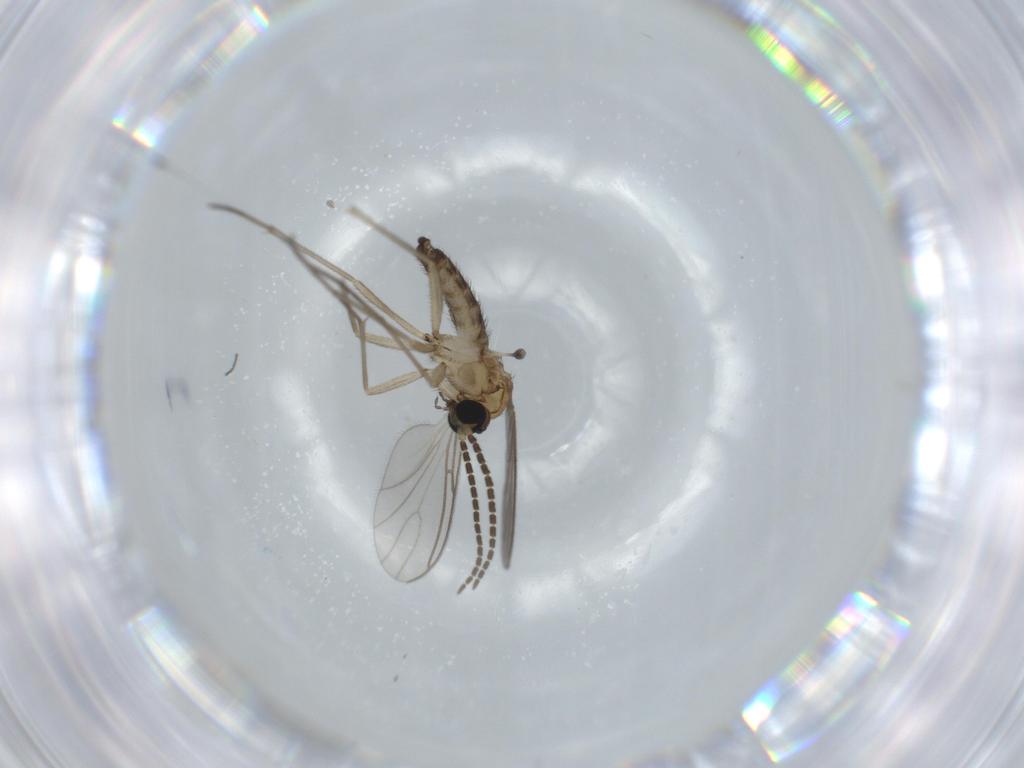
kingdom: Animalia
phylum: Arthropoda
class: Insecta
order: Diptera
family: Sciaridae
